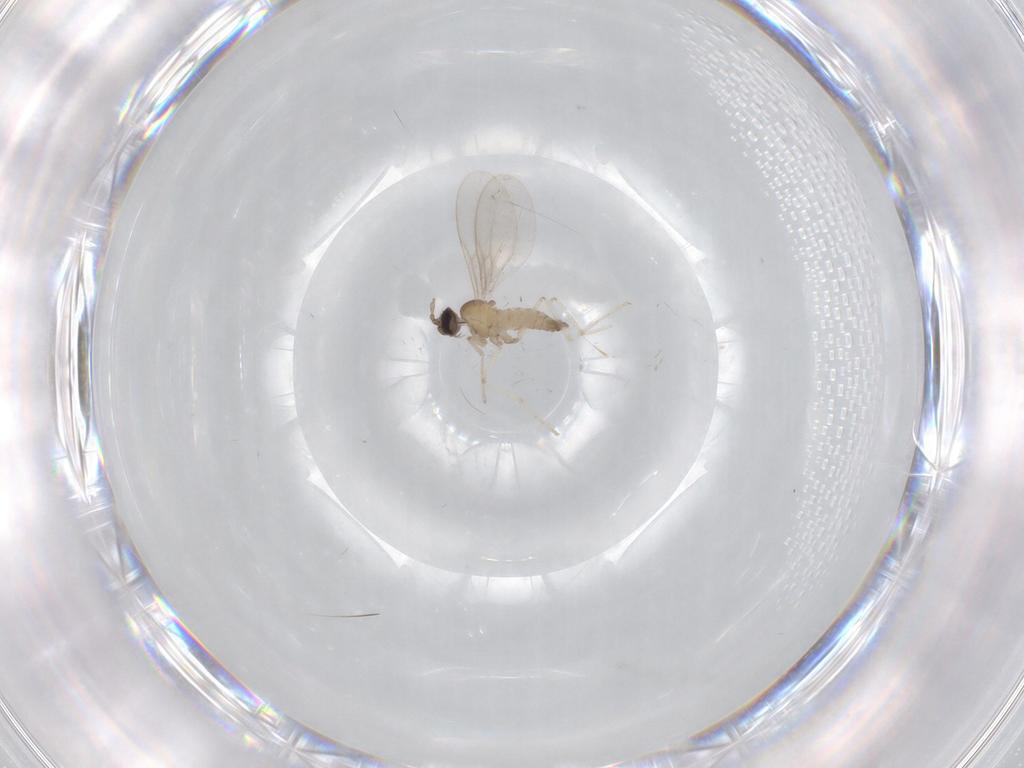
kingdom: Animalia
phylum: Arthropoda
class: Insecta
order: Diptera
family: Cecidomyiidae
